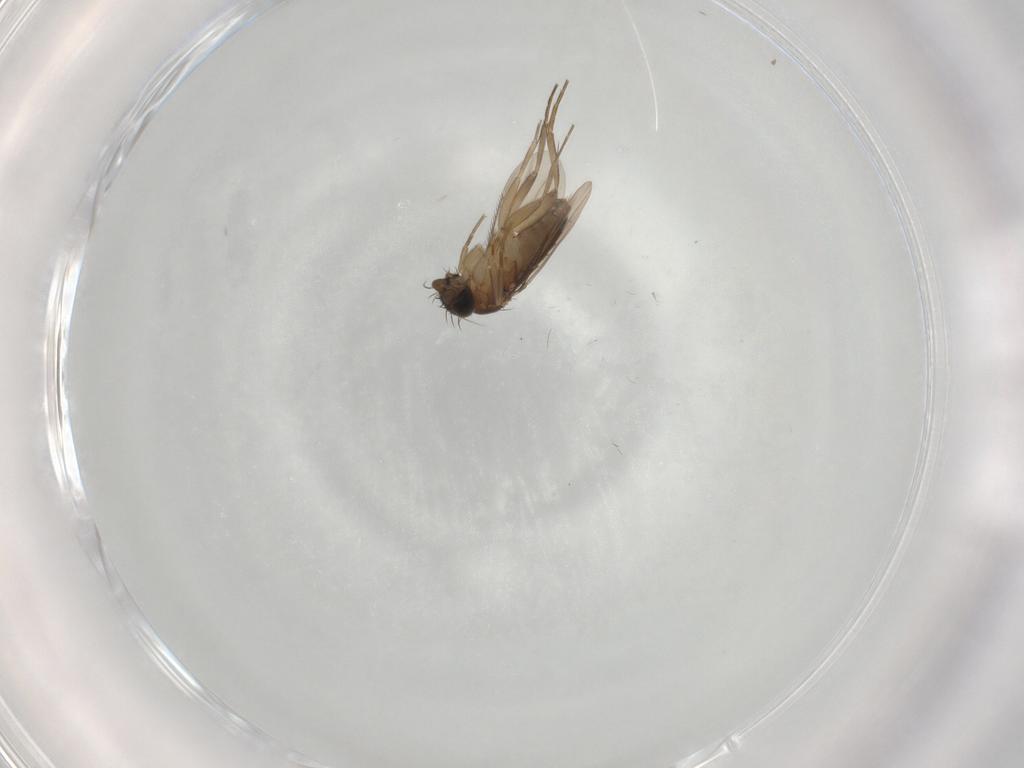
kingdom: Animalia
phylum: Arthropoda
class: Insecta
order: Diptera
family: Phoridae
